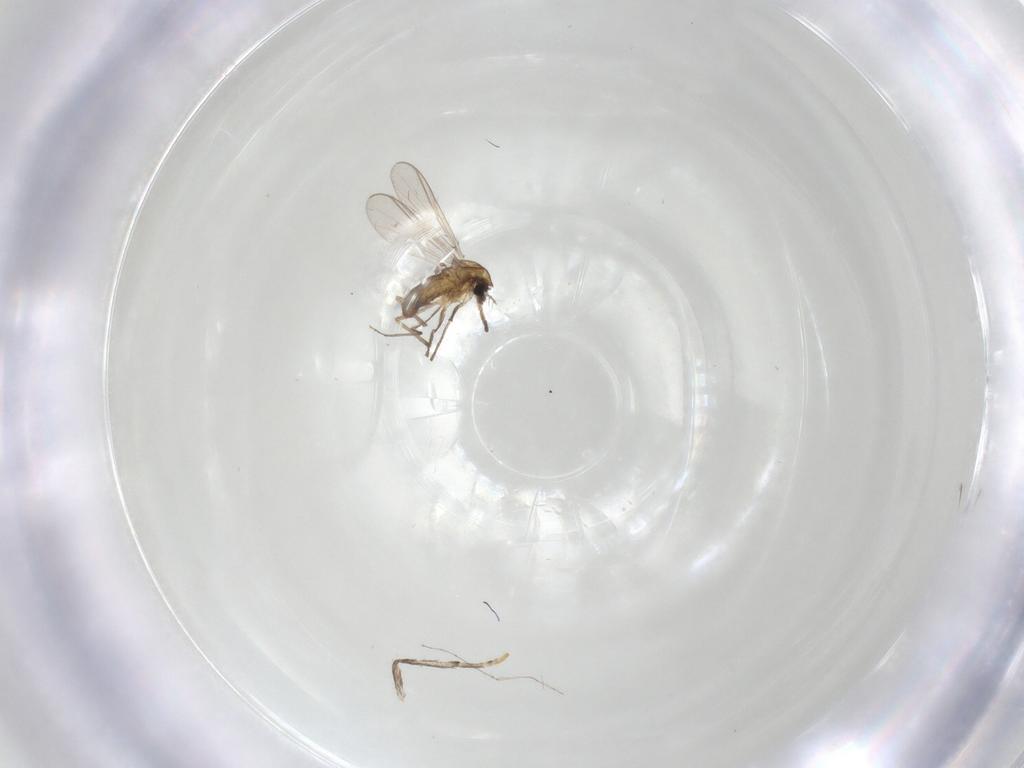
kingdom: Animalia
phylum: Arthropoda
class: Insecta
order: Diptera
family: Chironomidae
